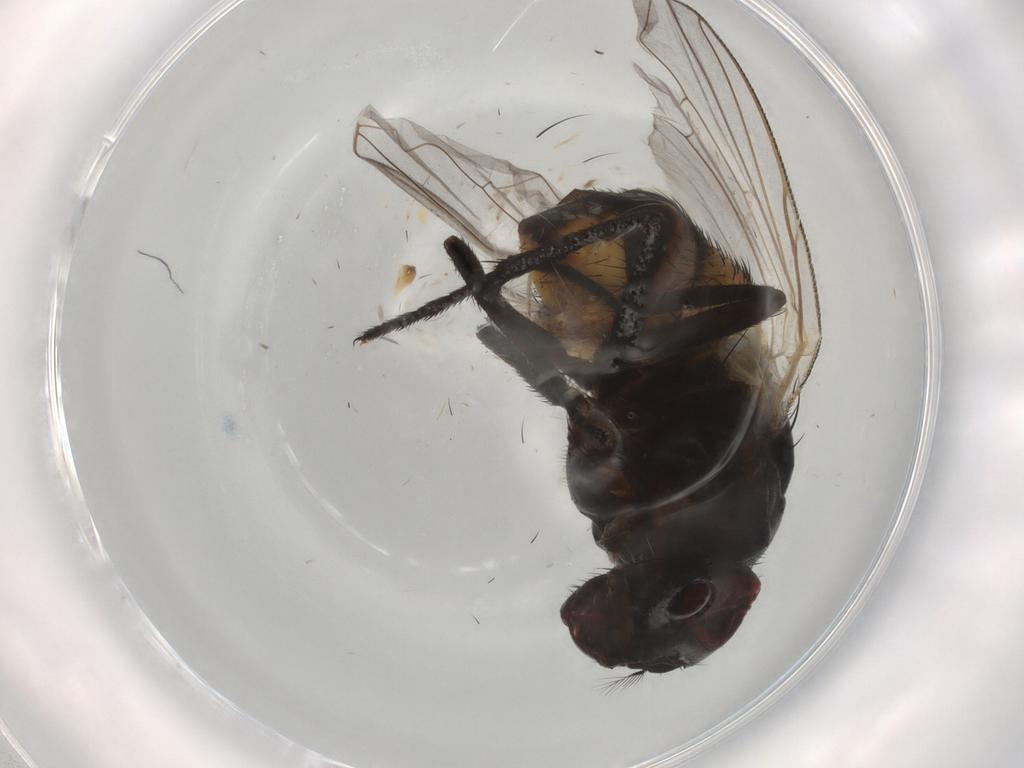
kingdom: Animalia
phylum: Arthropoda
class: Insecta
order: Diptera
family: Glossinidae
